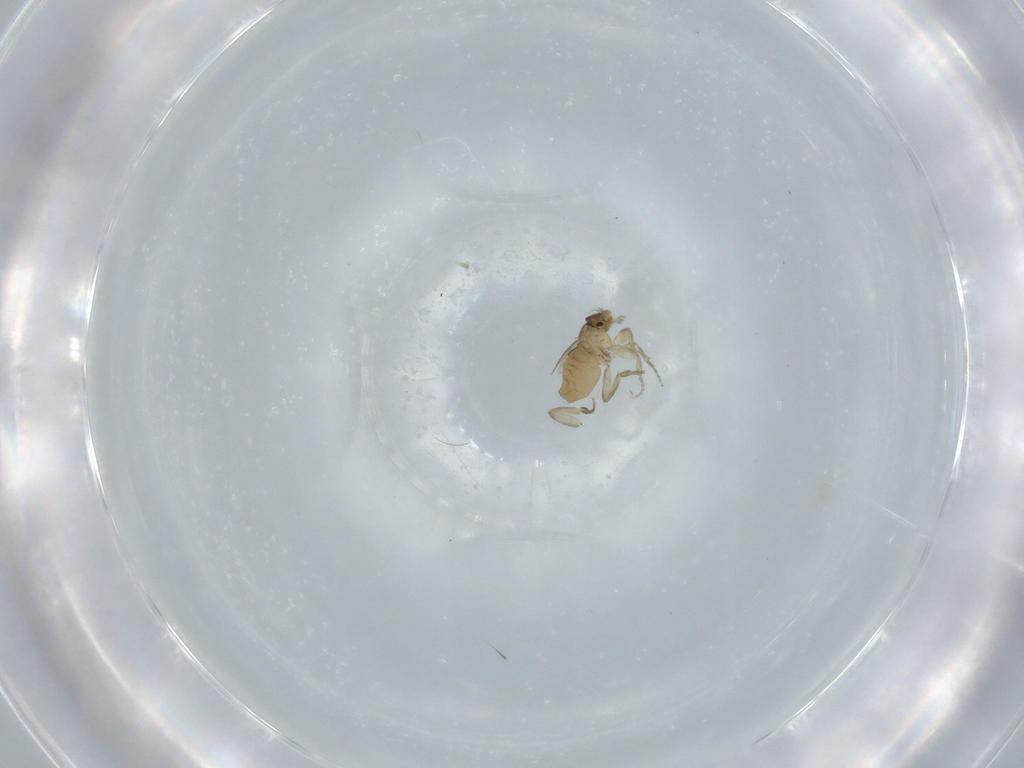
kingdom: Animalia
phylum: Arthropoda
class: Insecta
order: Diptera
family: Phoridae
